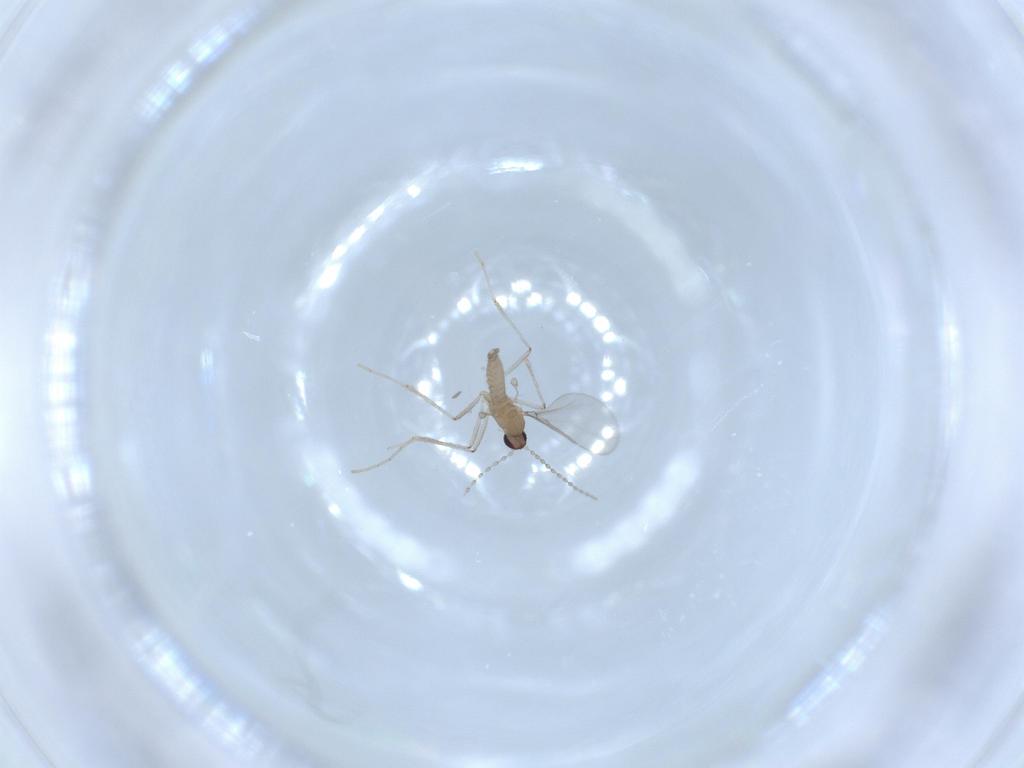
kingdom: Animalia
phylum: Arthropoda
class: Insecta
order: Diptera
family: Cecidomyiidae
